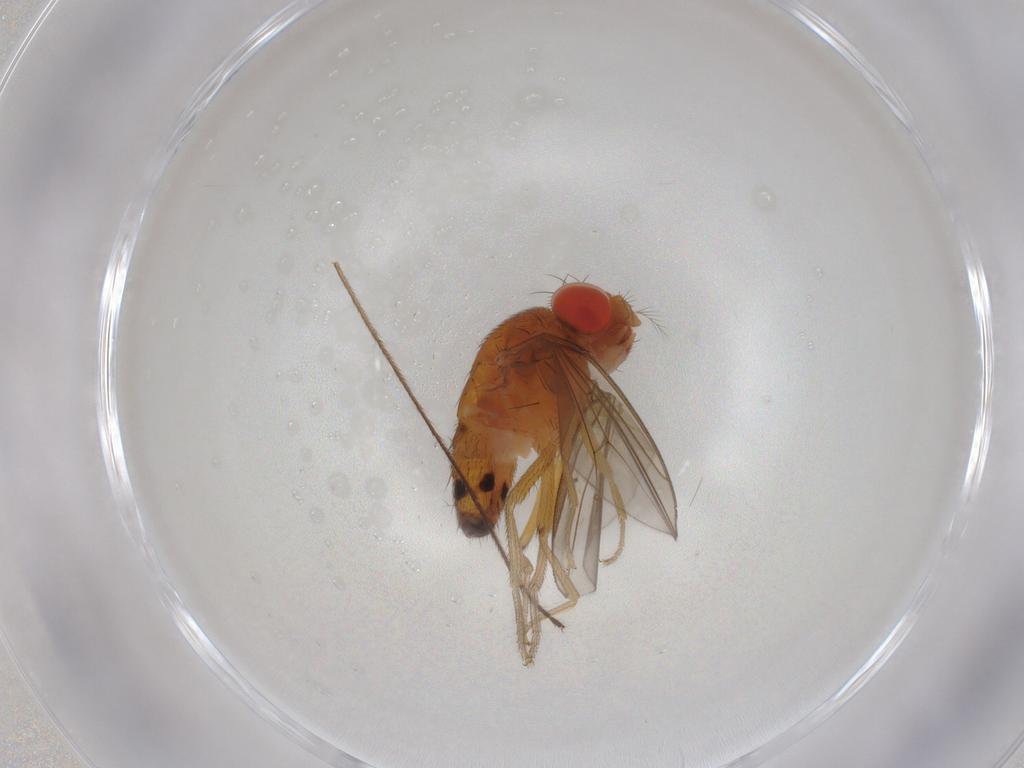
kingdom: Animalia
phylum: Arthropoda
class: Insecta
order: Diptera
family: Drosophilidae
